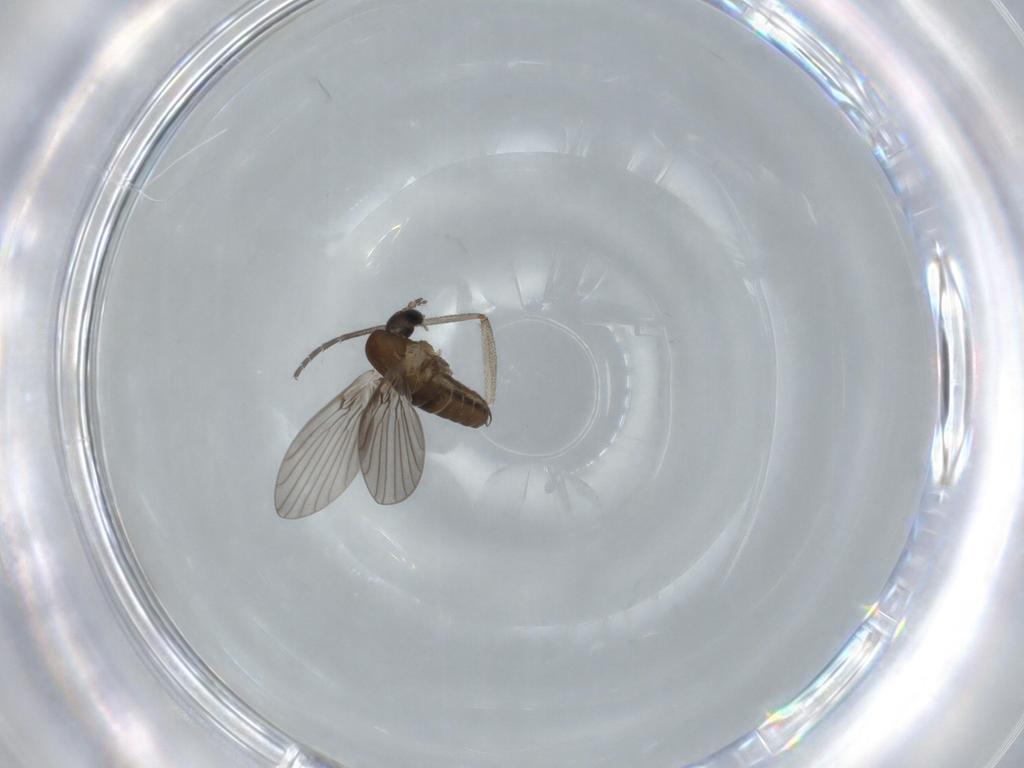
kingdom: Animalia
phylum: Arthropoda
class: Insecta
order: Diptera
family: Psychodidae
